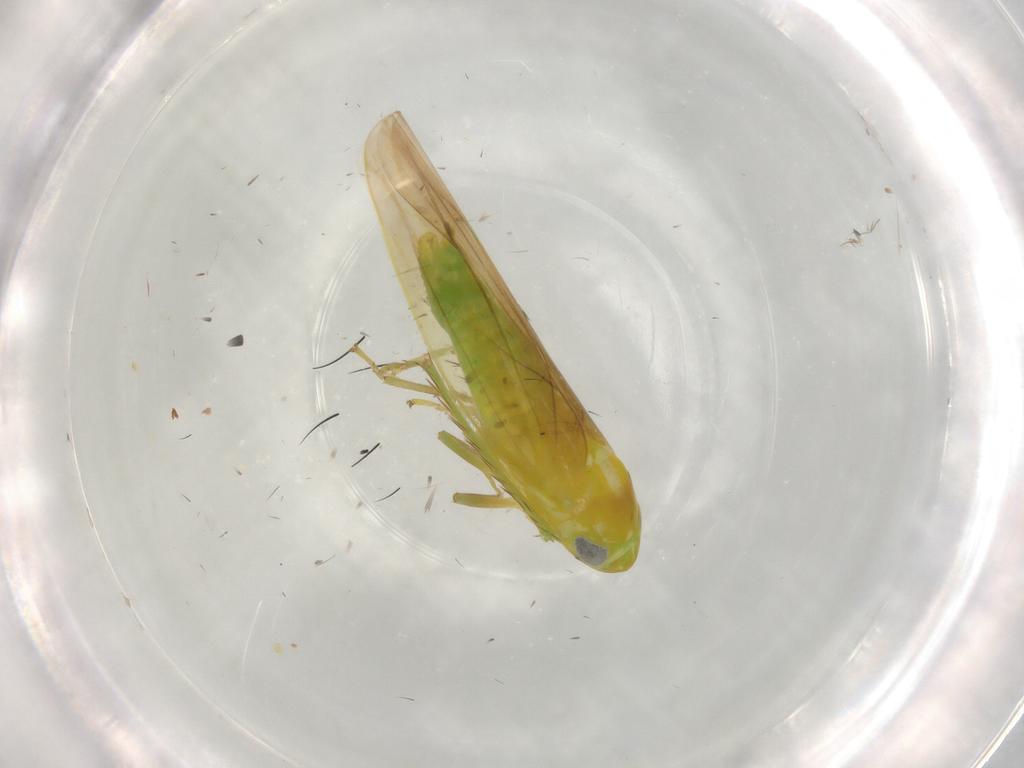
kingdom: Animalia
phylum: Arthropoda
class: Insecta
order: Hemiptera
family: Cicadellidae
